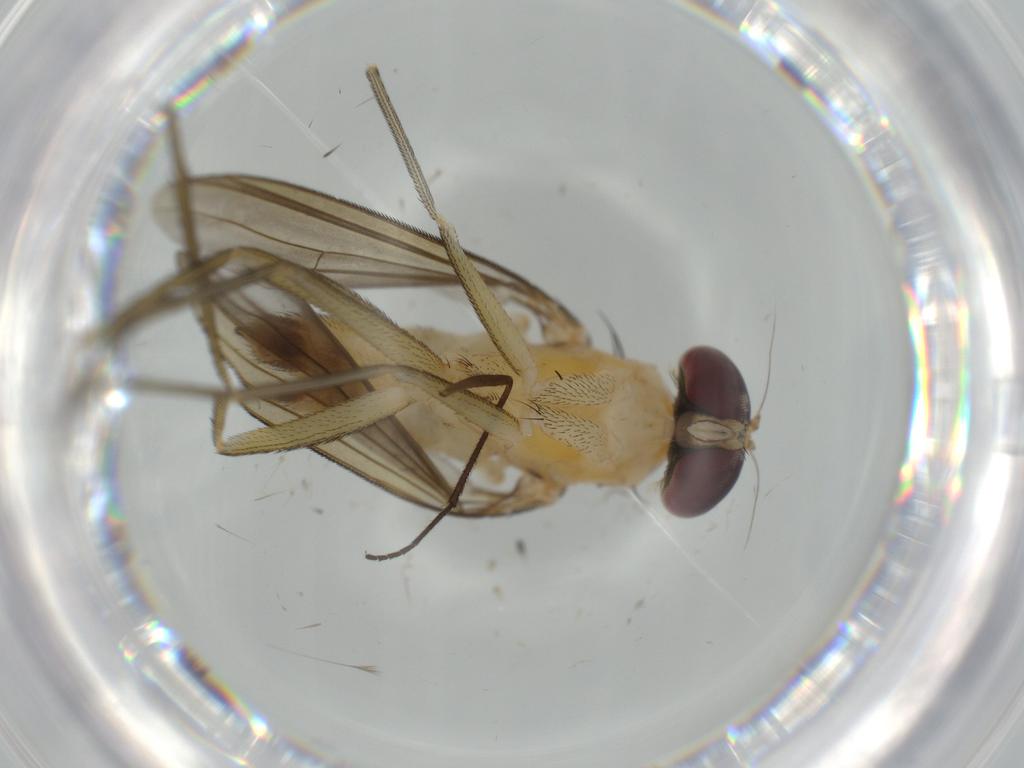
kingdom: Animalia
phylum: Arthropoda
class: Insecta
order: Diptera
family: Dolichopodidae
